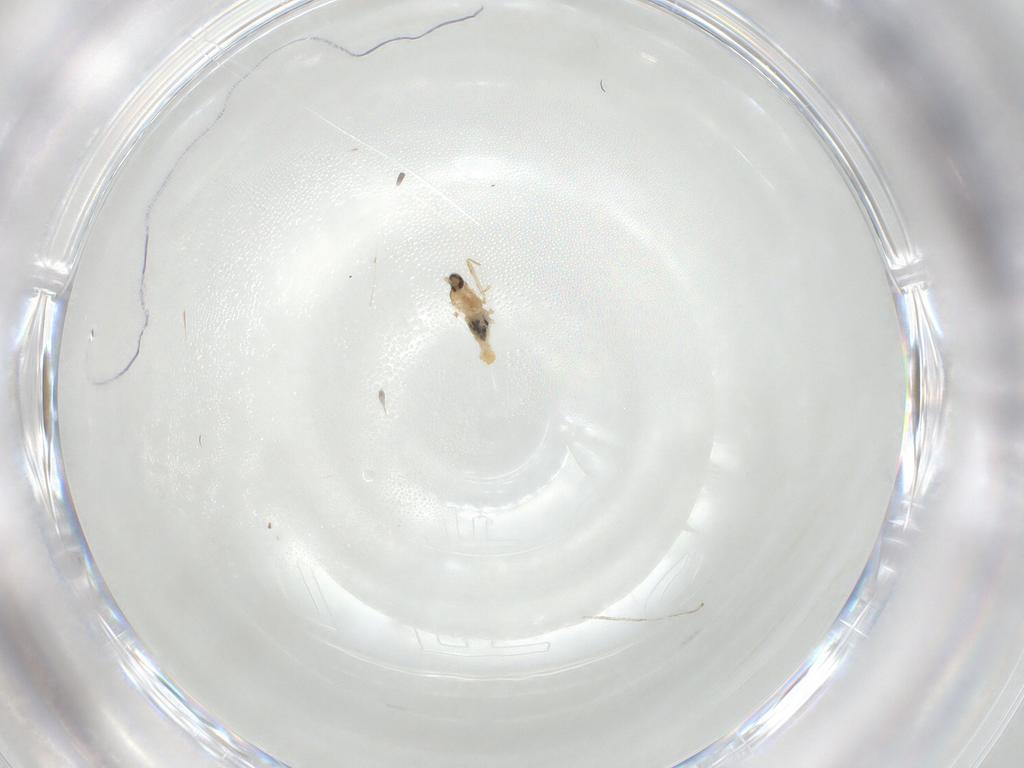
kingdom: Animalia
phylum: Arthropoda
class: Insecta
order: Diptera
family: Cecidomyiidae
